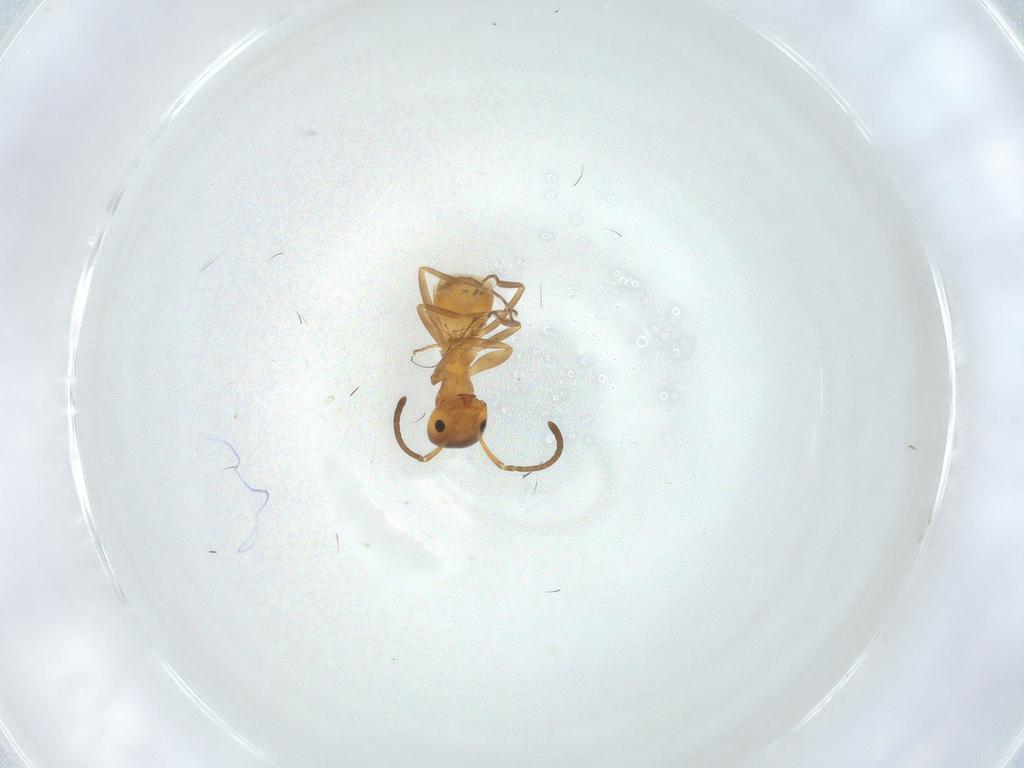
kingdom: Animalia
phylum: Arthropoda
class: Insecta
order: Hymenoptera
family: Formicidae
